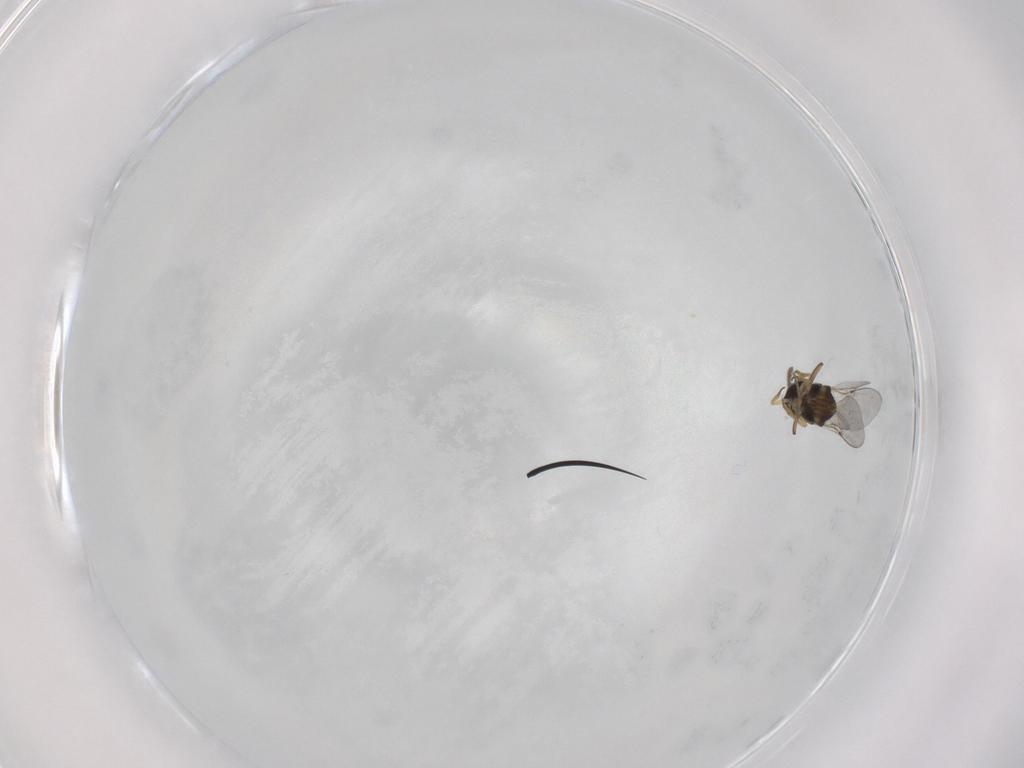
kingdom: Animalia
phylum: Arthropoda
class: Insecta
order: Hymenoptera
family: Encyrtidae
